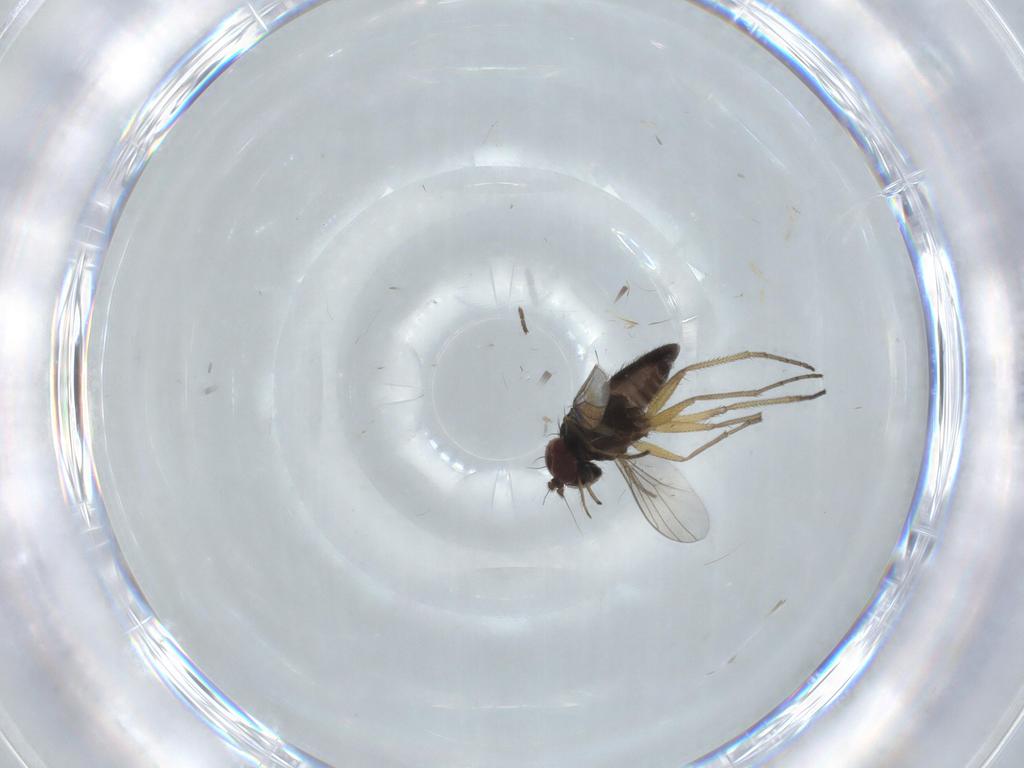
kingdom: Animalia
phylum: Arthropoda
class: Insecta
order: Diptera
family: Dolichopodidae
